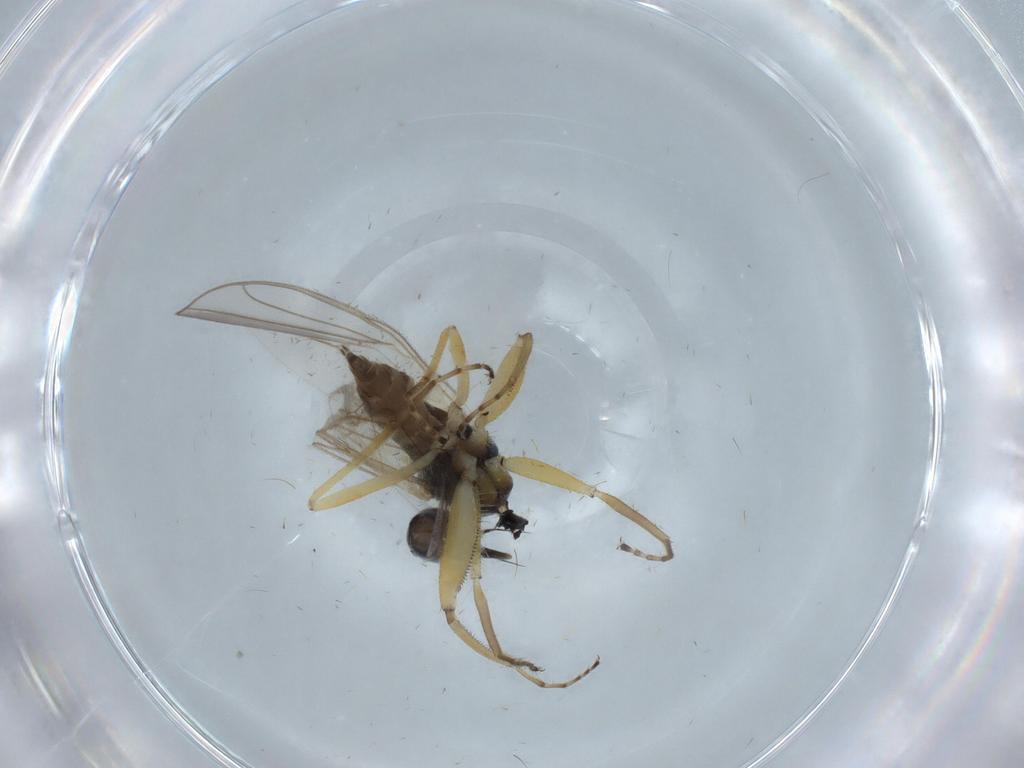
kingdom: Animalia
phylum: Arthropoda
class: Insecta
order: Diptera
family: Hybotidae
